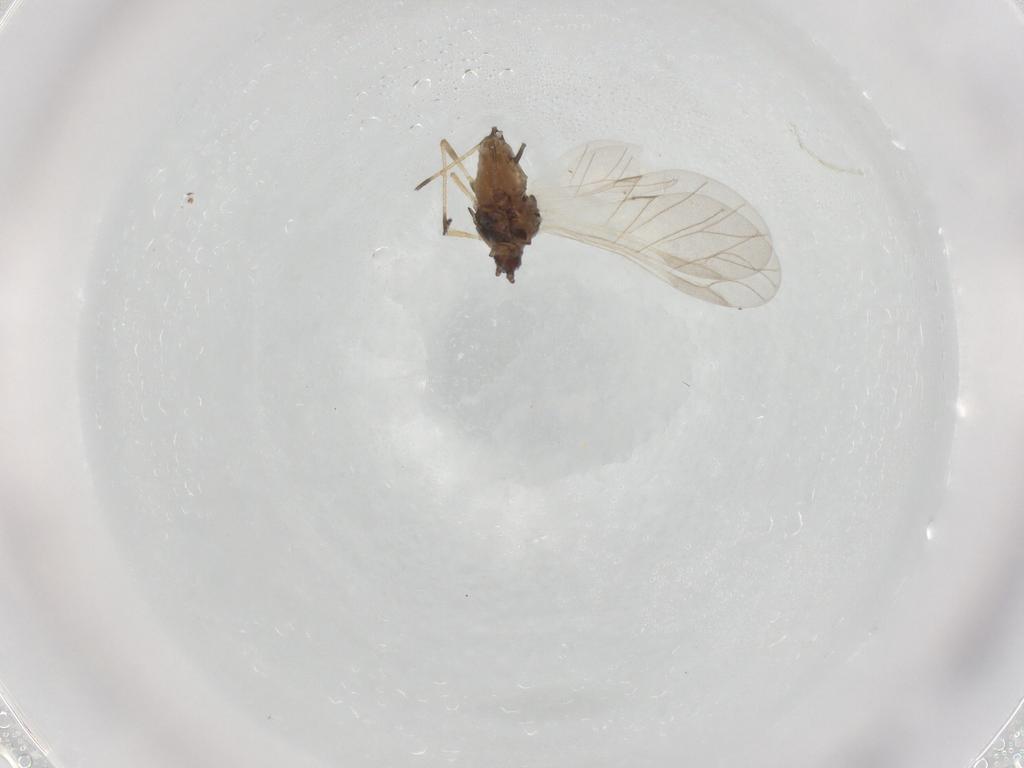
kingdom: Animalia
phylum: Arthropoda
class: Insecta
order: Hemiptera
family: Aphididae
